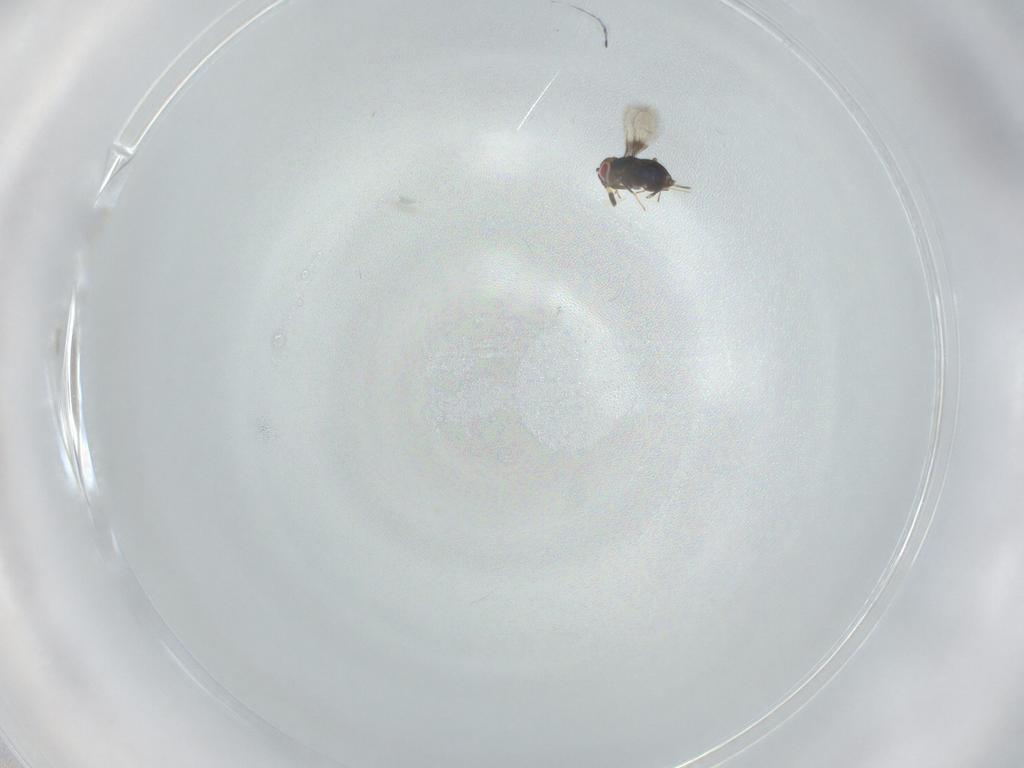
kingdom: Animalia
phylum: Arthropoda
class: Insecta
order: Hymenoptera
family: Azotidae
